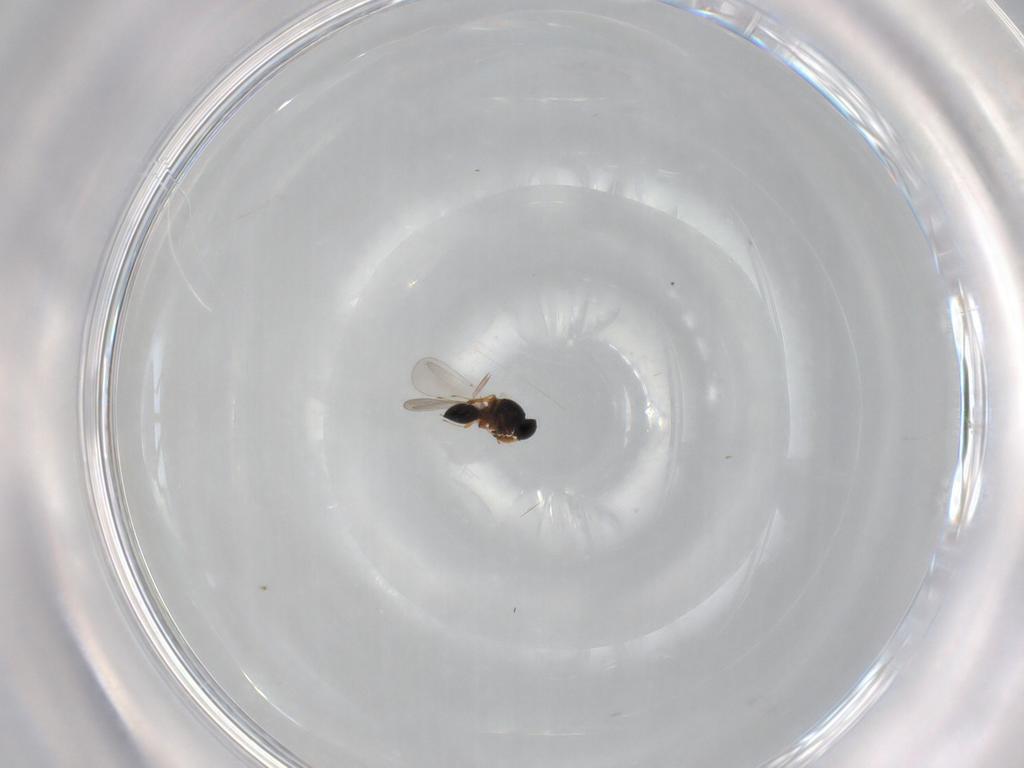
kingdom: Animalia
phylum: Arthropoda
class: Insecta
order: Hymenoptera
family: Platygastridae
